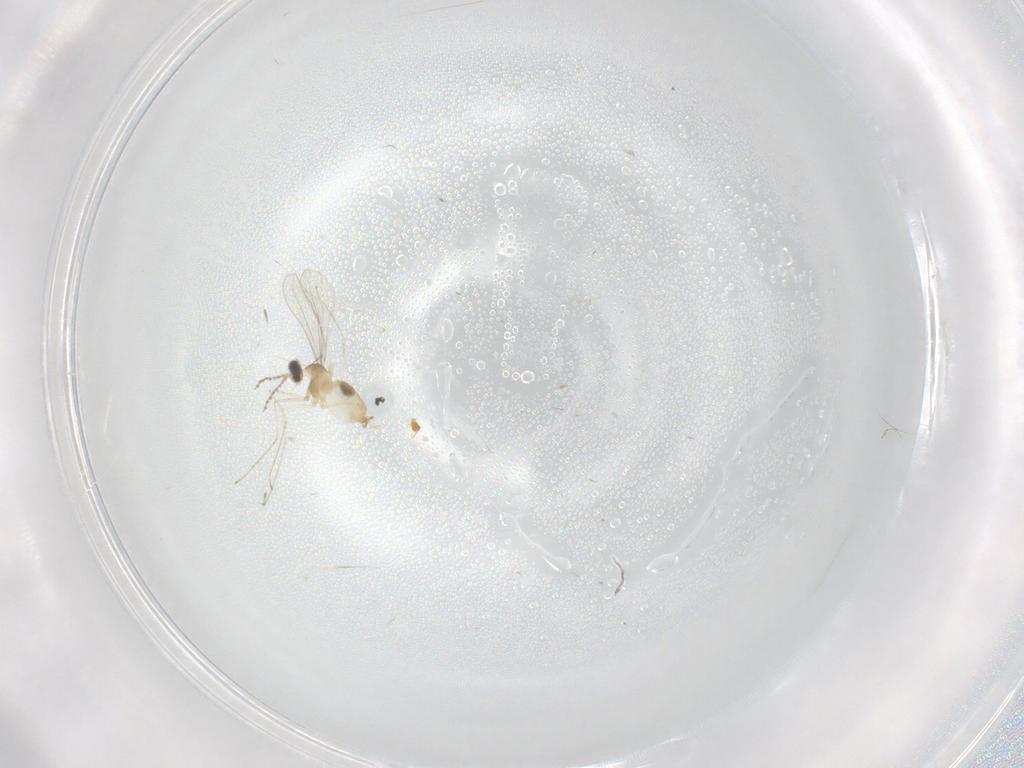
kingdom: Animalia
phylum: Arthropoda
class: Insecta
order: Diptera
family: Cecidomyiidae
